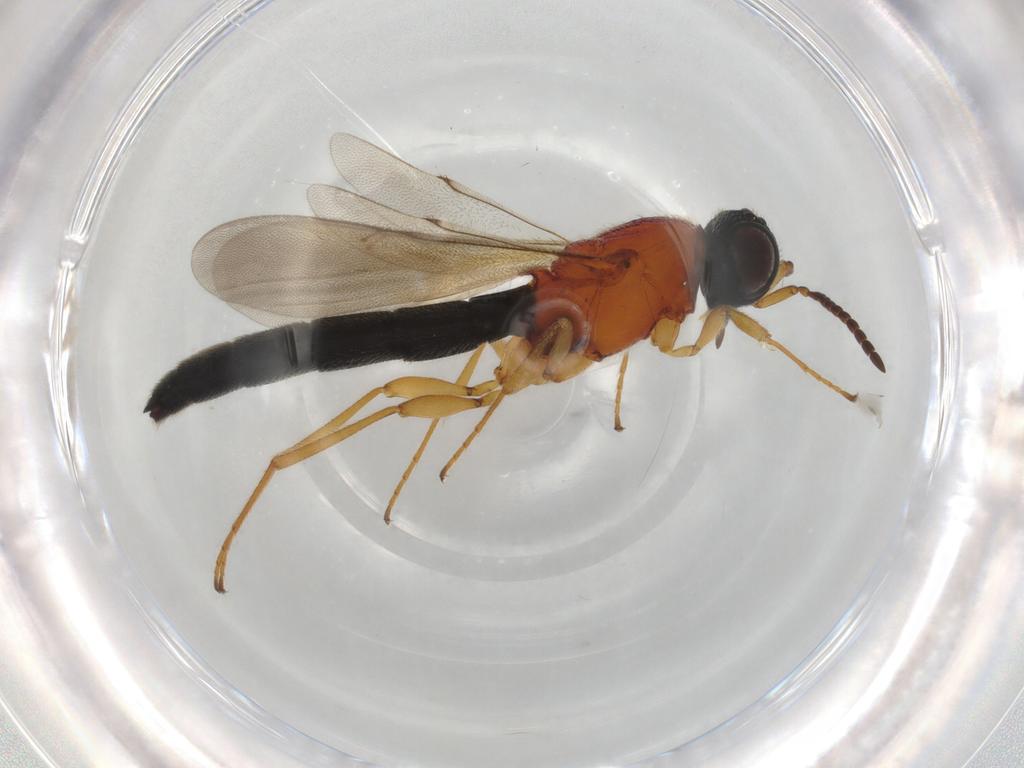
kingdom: Animalia
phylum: Arthropoda
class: Insecta
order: Hymenoptera
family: Scelionidae
